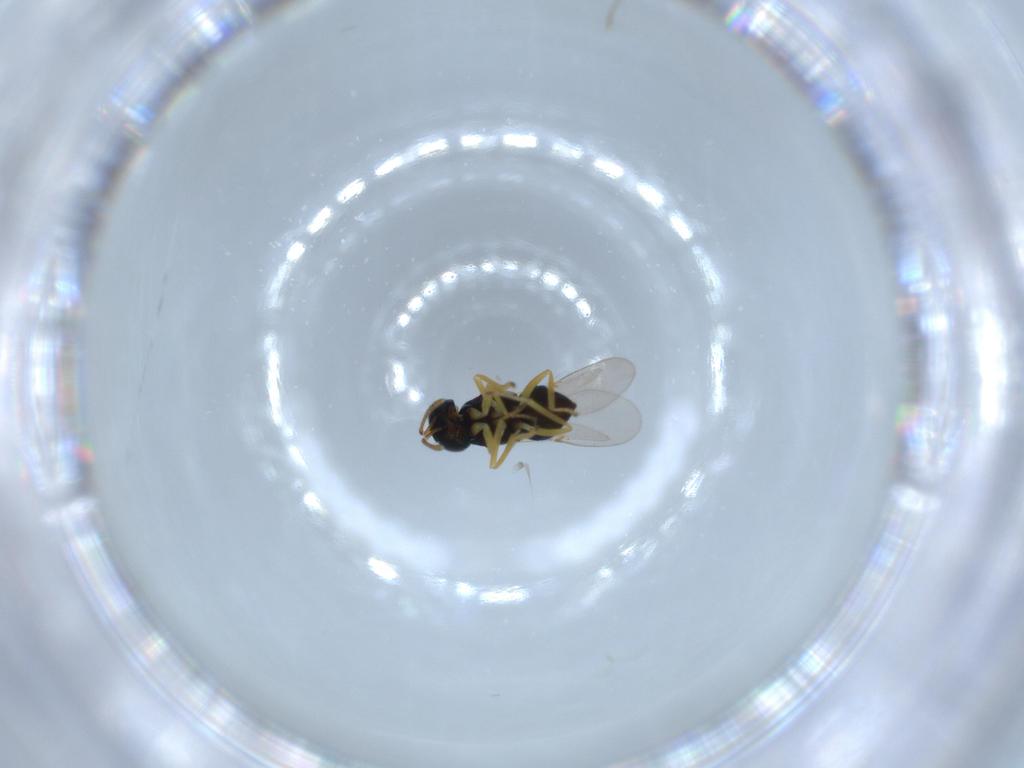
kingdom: Animalia
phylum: Arthropoda
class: Insecta
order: Hymenoptera
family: Encyrtidae
